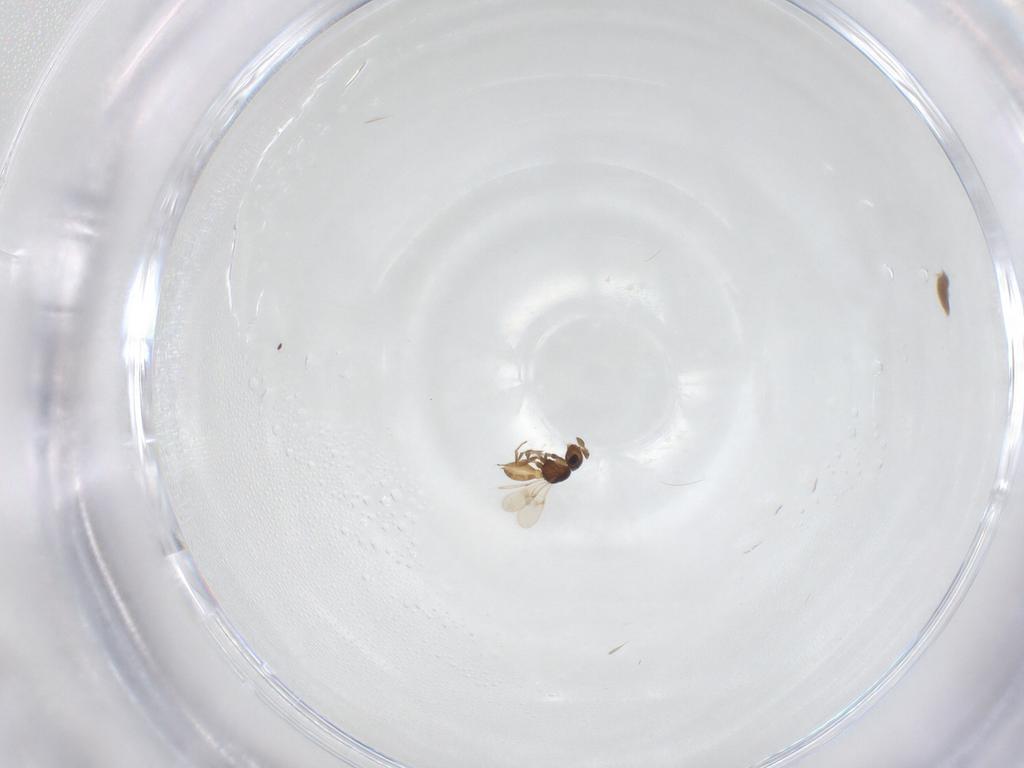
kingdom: Animalia
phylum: Arthropoda
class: Insecta
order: Hymenoptera
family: Scelionidae
